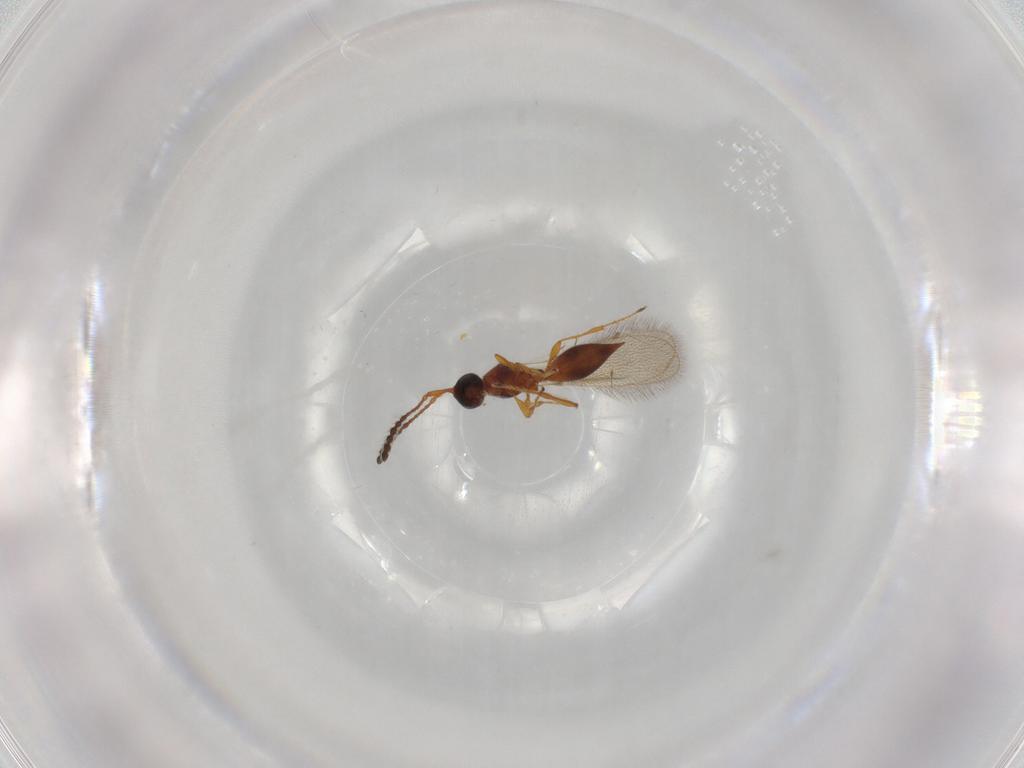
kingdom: Animalia
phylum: Arthropoda
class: Insecta
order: Hymenoptera
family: Diapriidae
